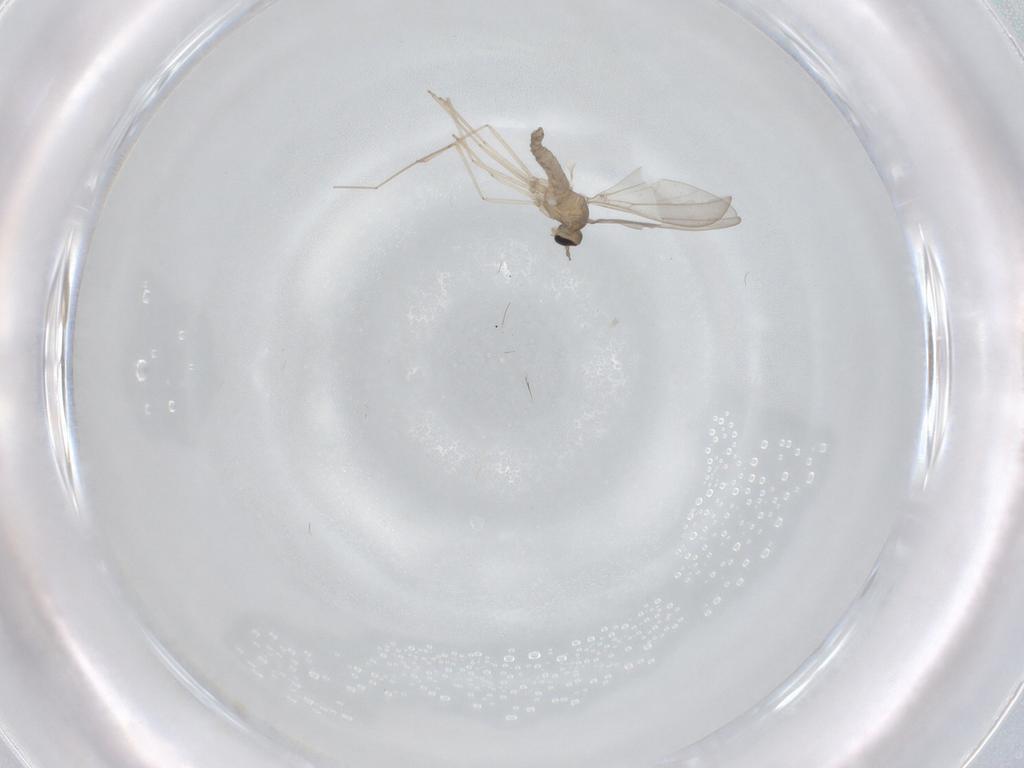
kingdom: Animalia
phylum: Arthropoda
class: Insecta
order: Diptera
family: Cecidomyiidae
